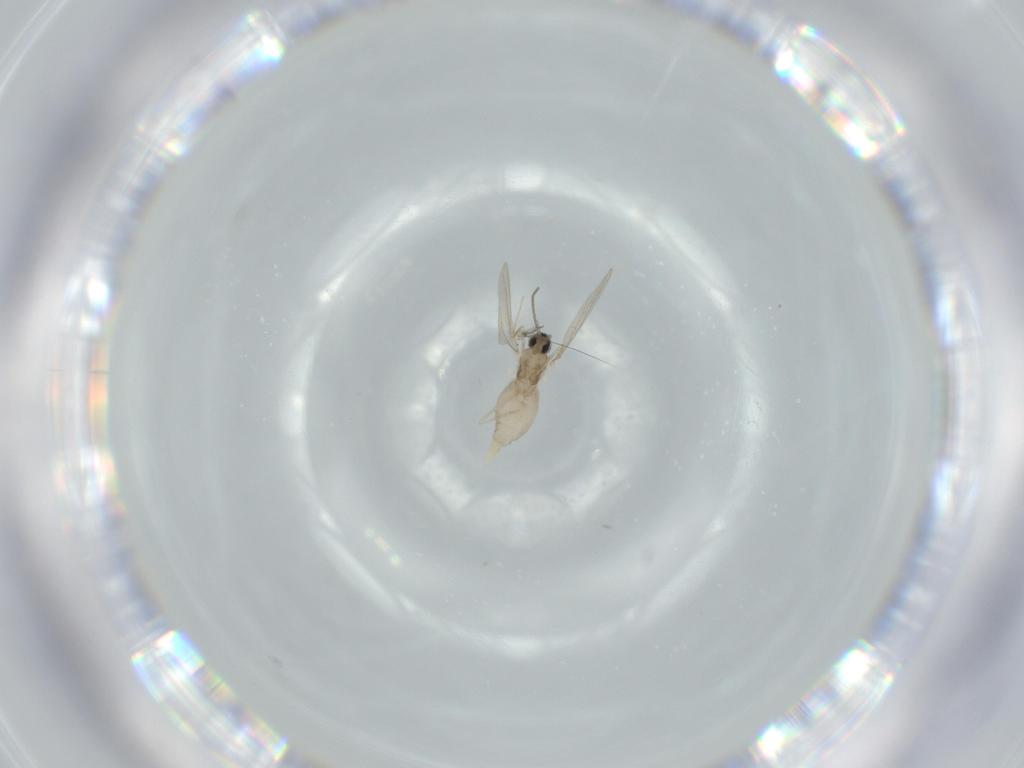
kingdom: Animalia
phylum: Arthropoda
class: Insecta
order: Diptera
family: Cecidomyiidae
